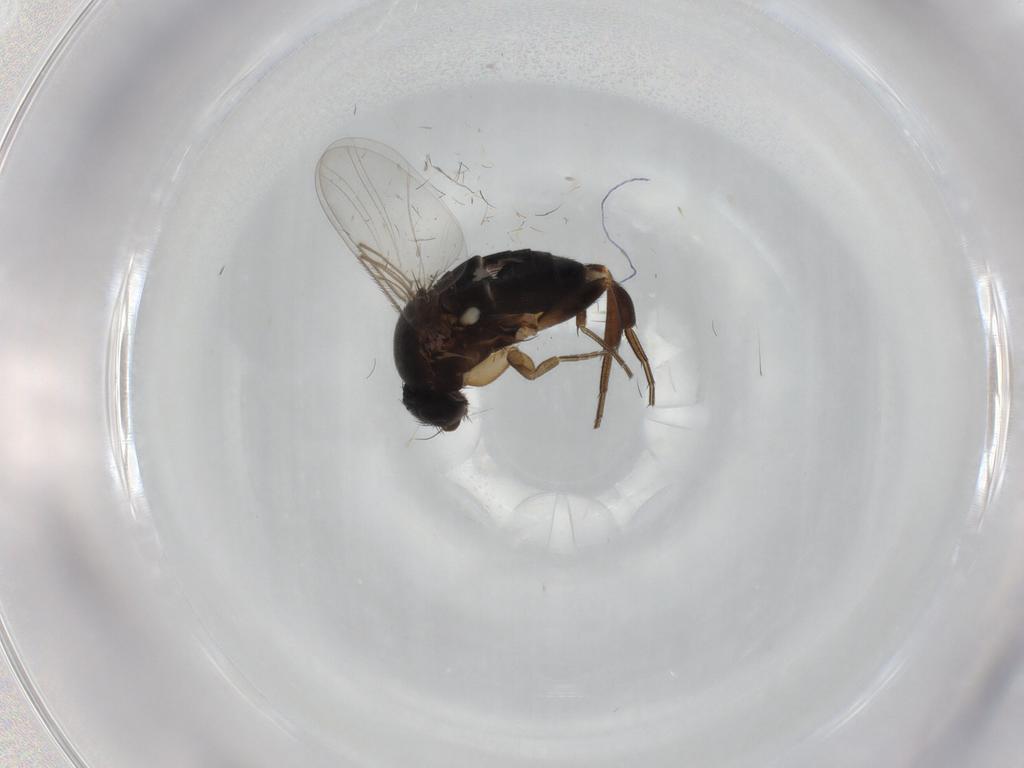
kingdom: Animalia
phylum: Arthropoda
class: Insecta
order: Diptera
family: Phoridae
